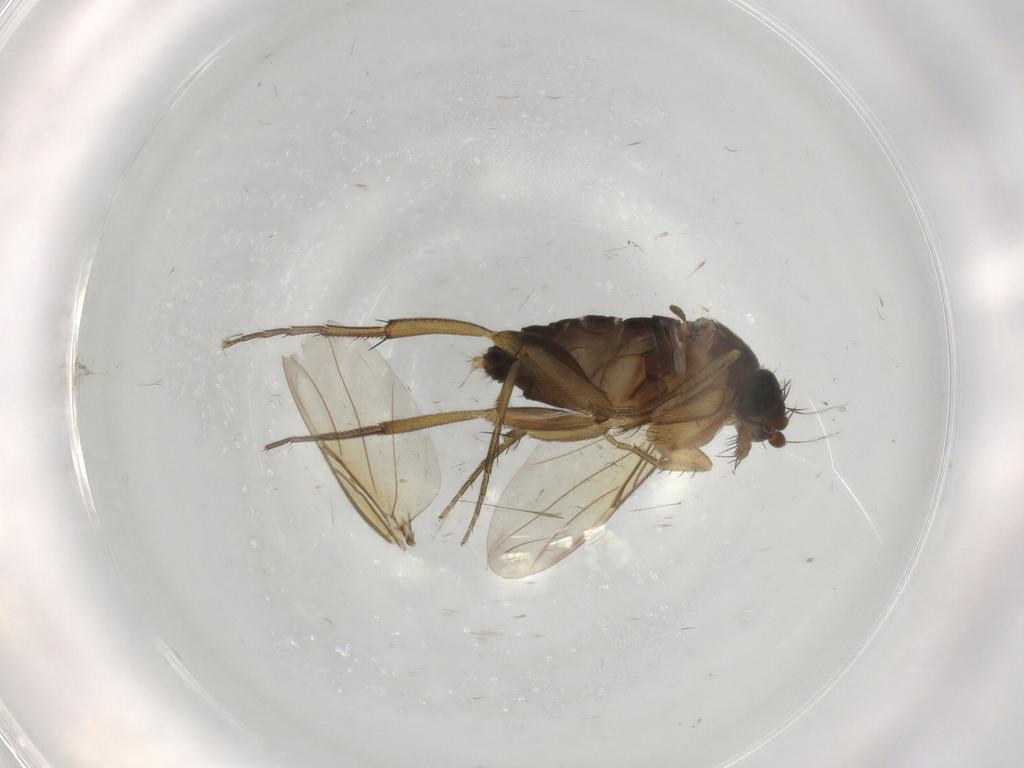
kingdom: Animalia
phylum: Arthropoda
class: Insecta
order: Diptera
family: Phoridae
